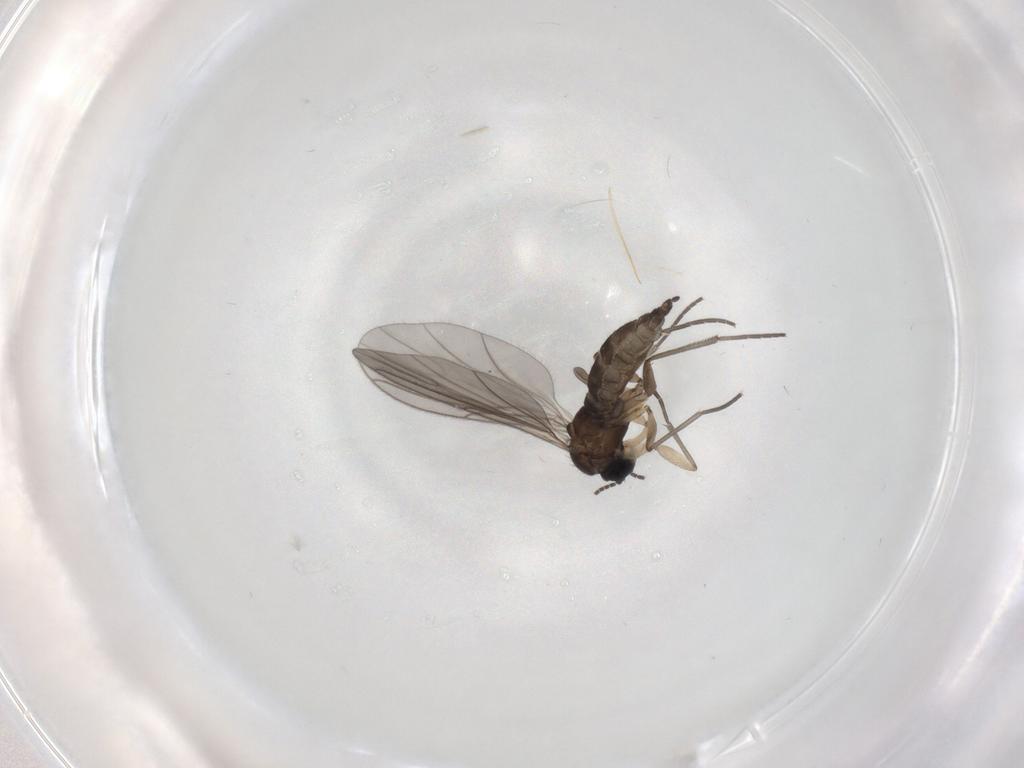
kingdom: Animalia
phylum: Arthropoda
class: Insecta
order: Diptera
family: Sciaridae
